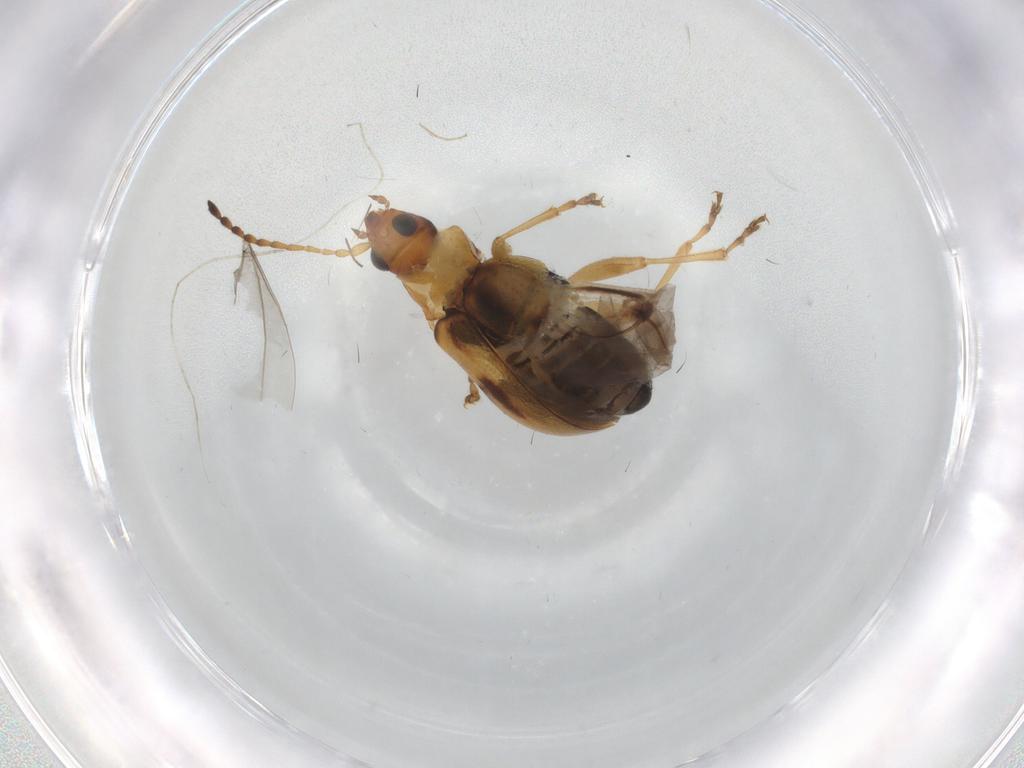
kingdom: Animalia
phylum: Arthropoda
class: Insecta
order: Coleoptera
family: Chrysomelidae
